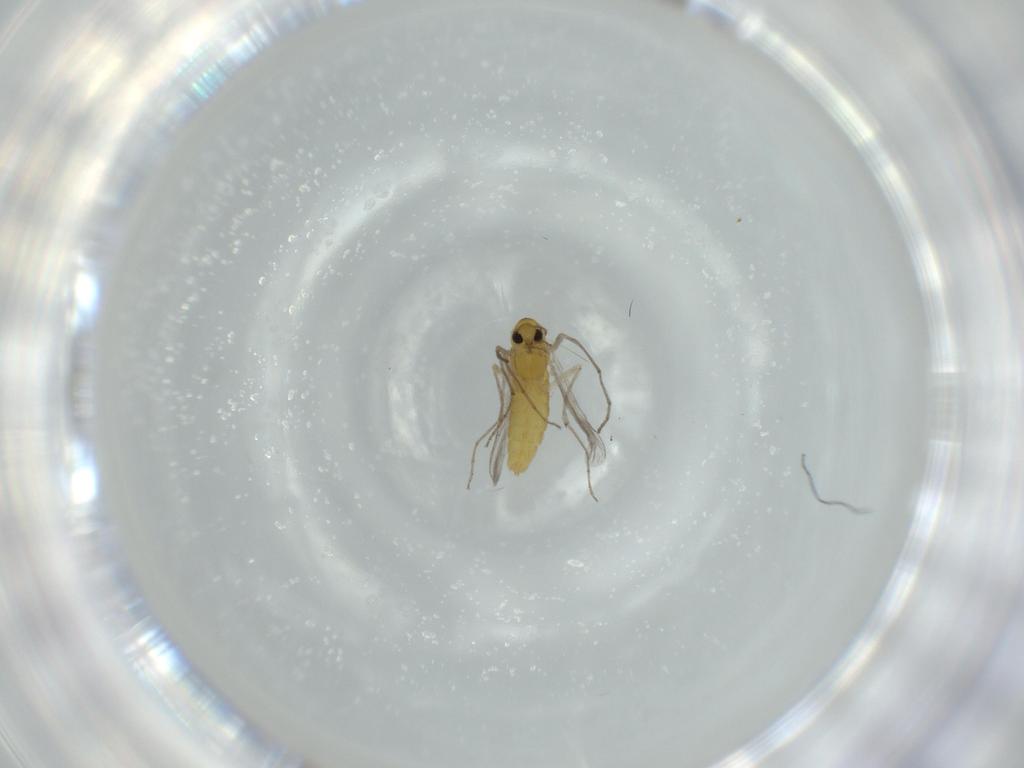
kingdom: Animalia
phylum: Arthropoda
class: Insecta
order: Diptera
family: Chironomidae
